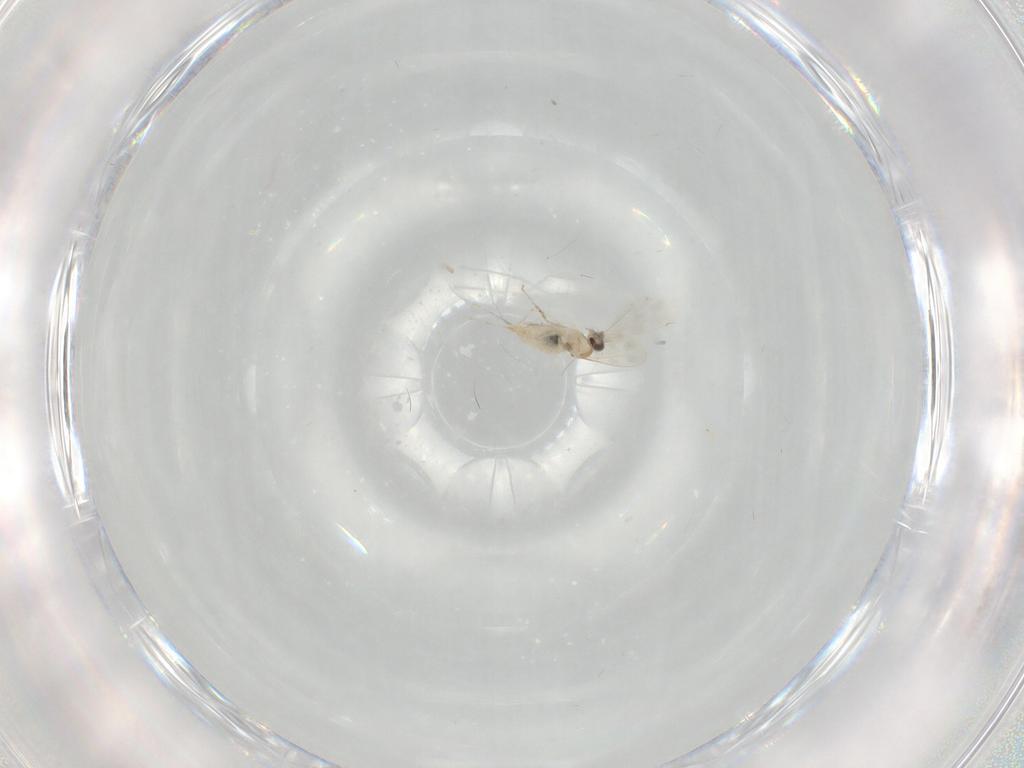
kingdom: Animalia
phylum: Arthropoda
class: Insecta
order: Diptera
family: Cecidomyiidae
